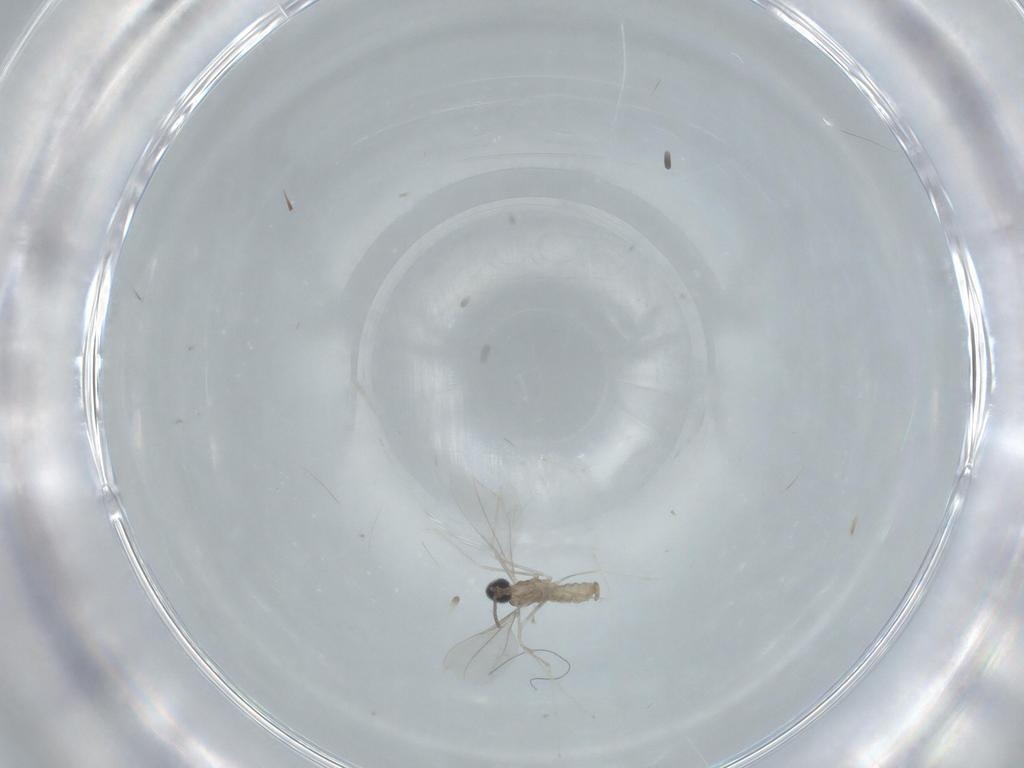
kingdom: Animalia
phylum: Arthropoda
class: Insecta
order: Diptera
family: Cecidomyiidae
